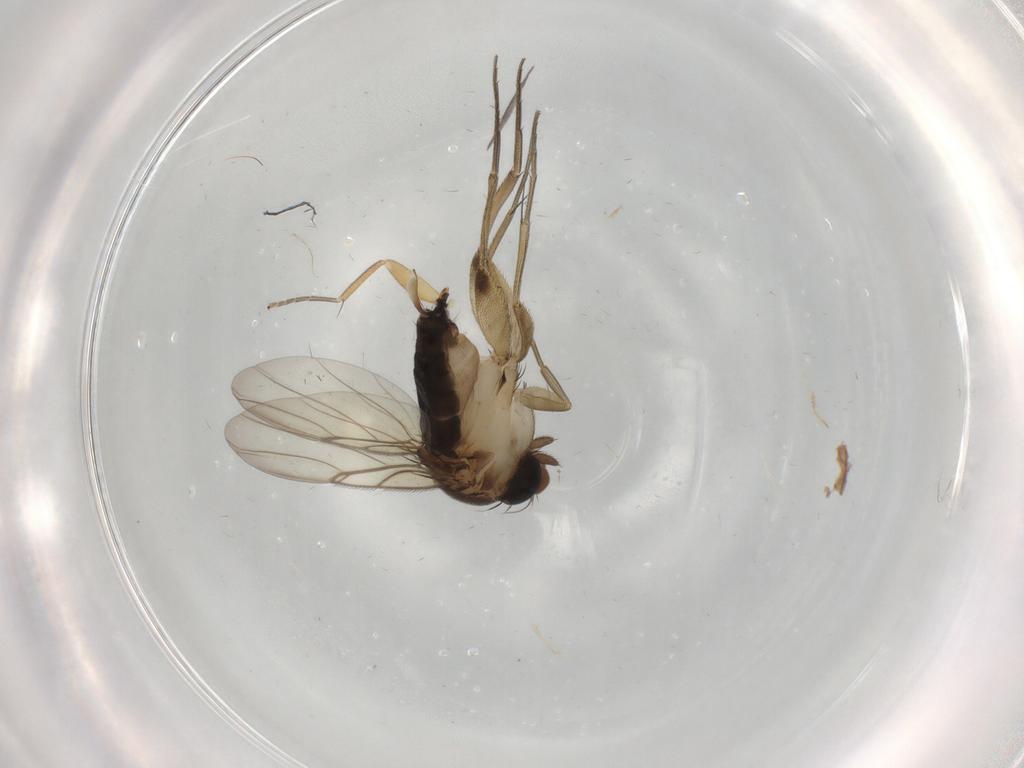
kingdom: Animalia
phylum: Arthropoda
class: Insecta
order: Diptera
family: Phoridae
